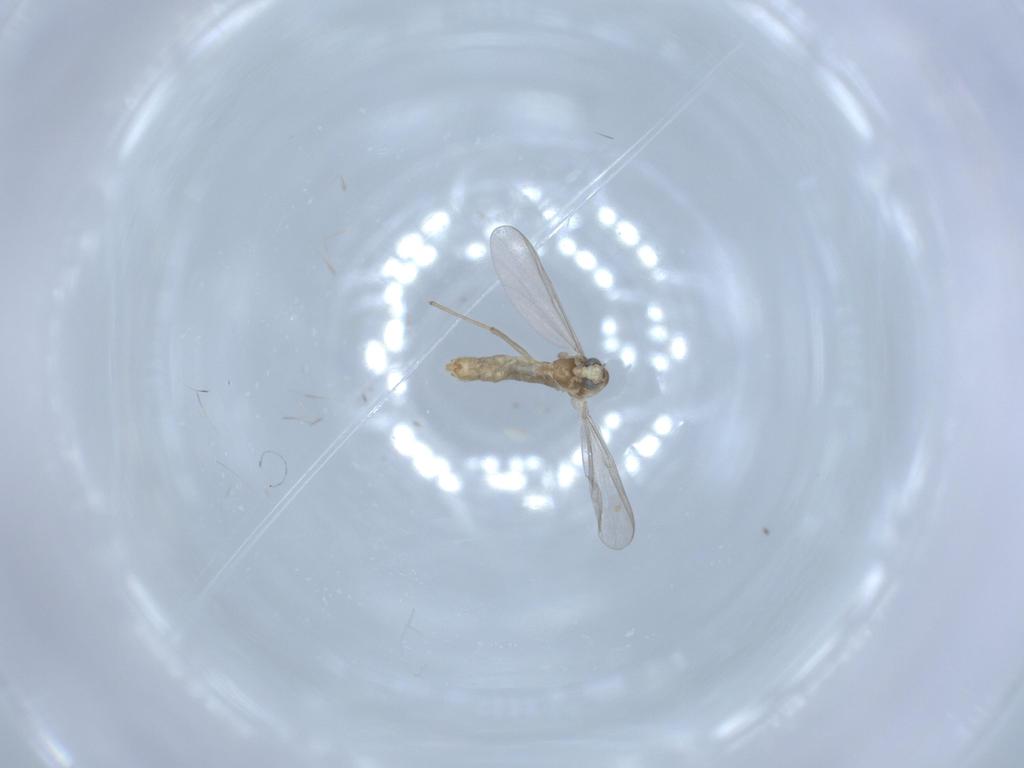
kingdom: Animalia
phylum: Arthropoda
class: Insecta
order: Diptera
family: Chironomidae
